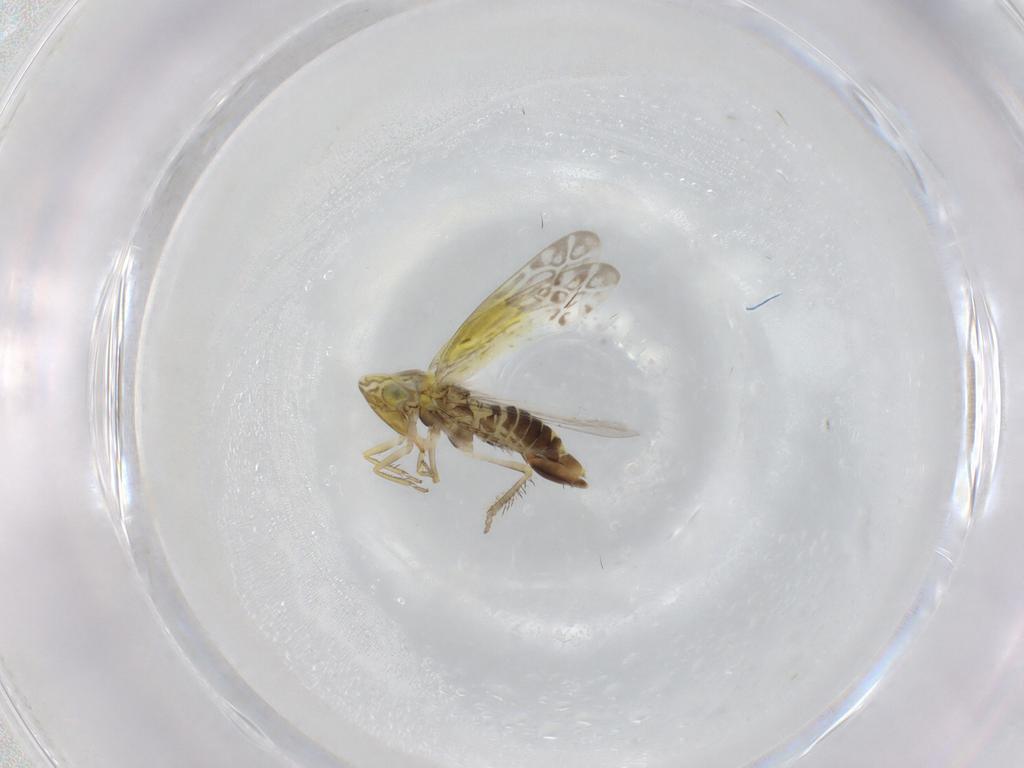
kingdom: Animalia
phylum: Arthropoda
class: Insecta
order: Hemiptera
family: Cicadellidae
